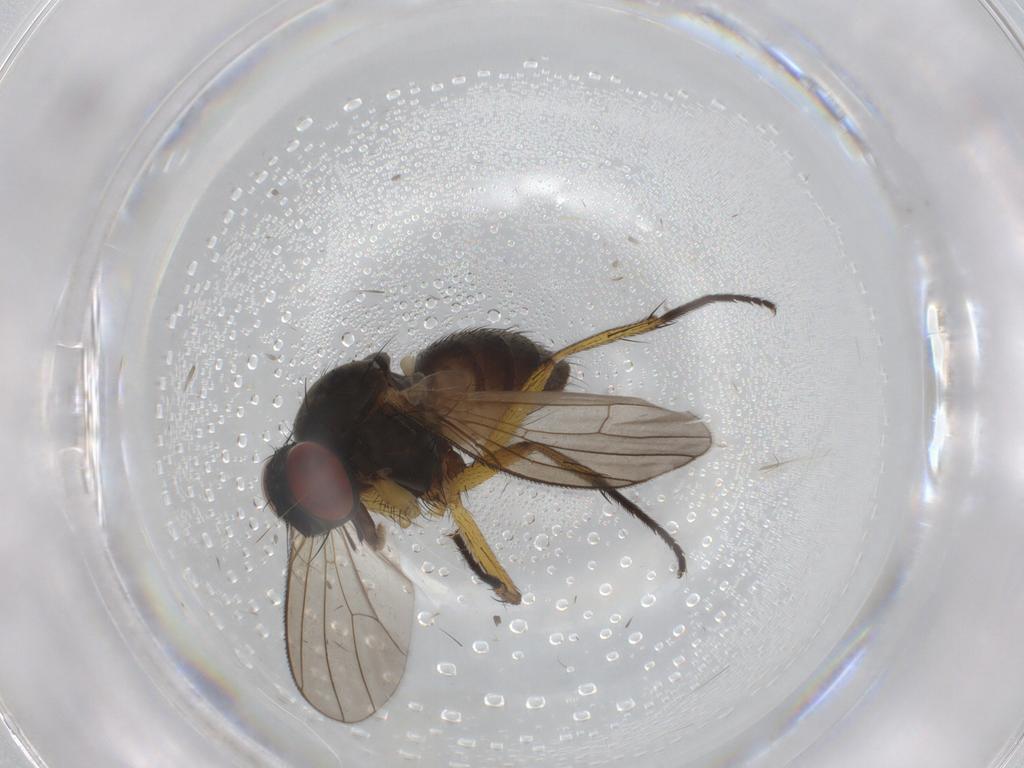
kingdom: Animalia
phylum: Arthropoda
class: Insecta
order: Diptera
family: Muscidae
